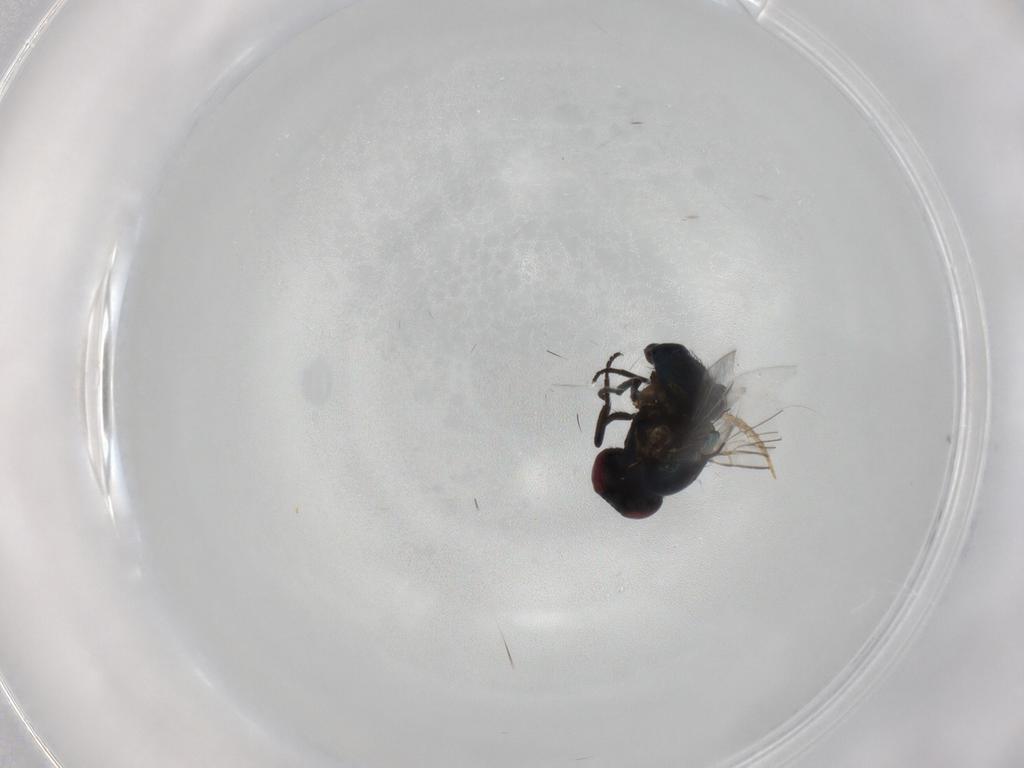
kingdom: Animalia
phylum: Arthropoda
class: Insecta
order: Diptera
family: Agromyzidae
